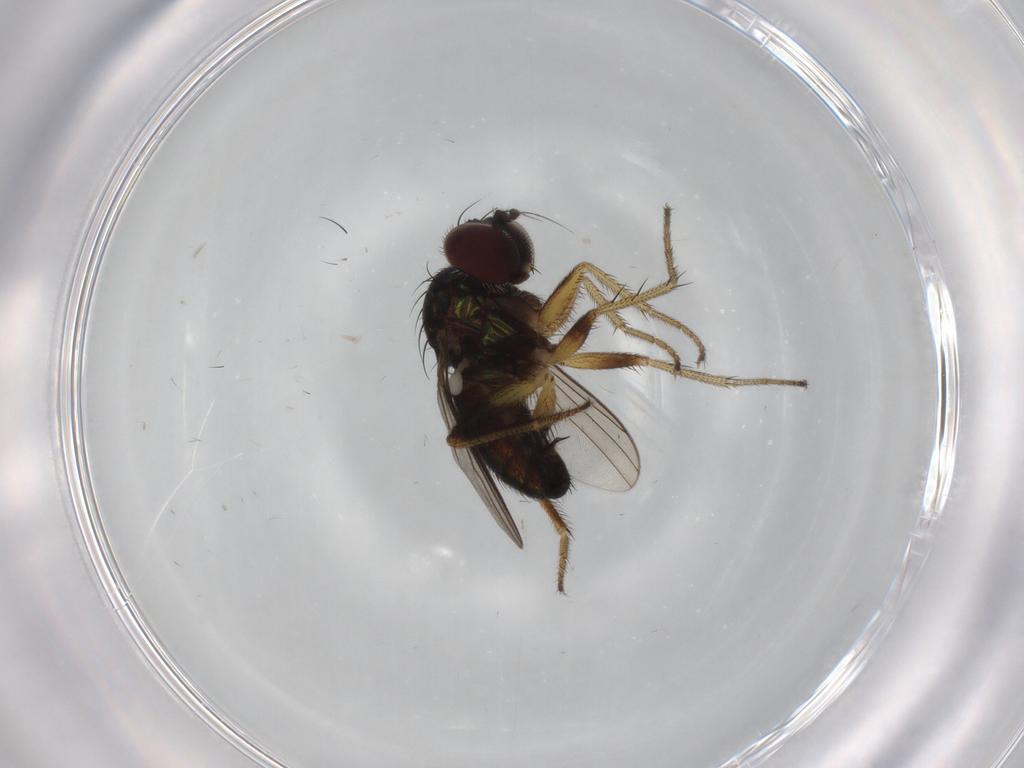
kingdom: Animalia
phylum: Arthropoda
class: Insecta
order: Diptera
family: Dolichopodidae
